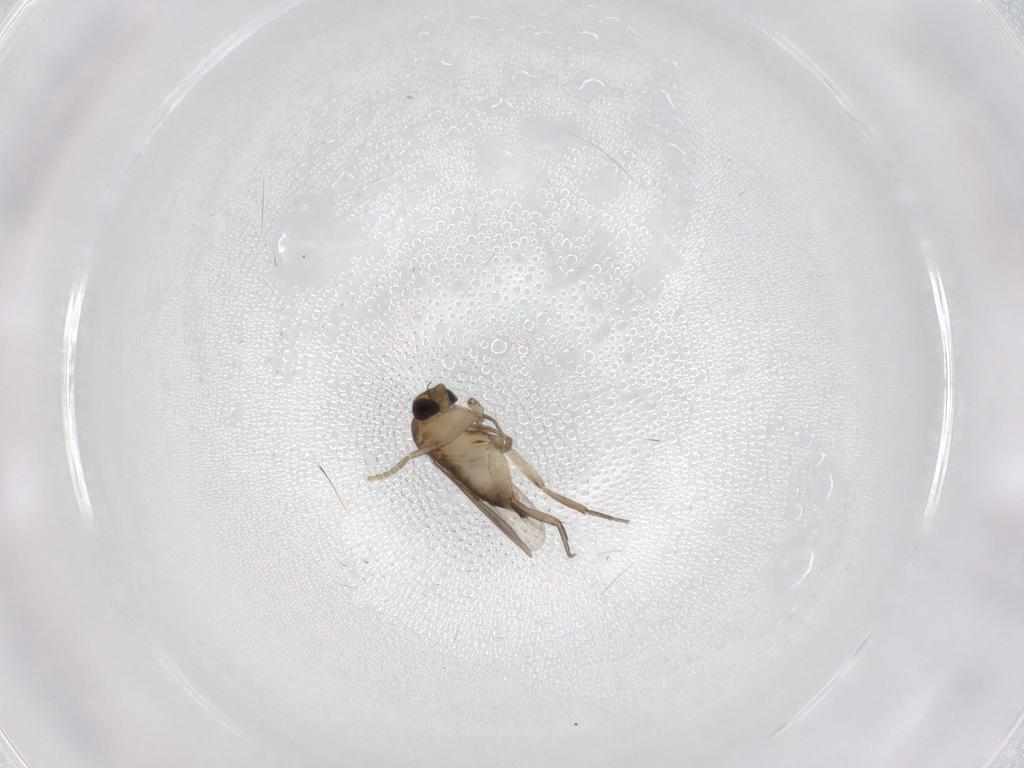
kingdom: Animalia
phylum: Arthropoda
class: Insecta
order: Diptera
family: Phoridae
